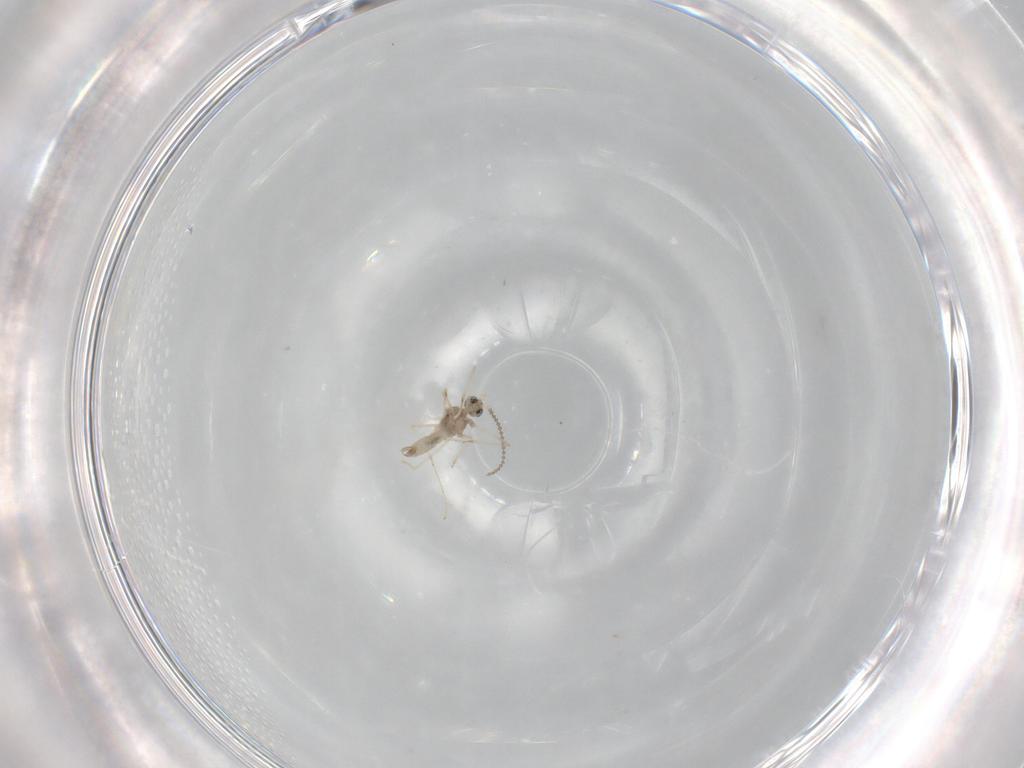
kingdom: Animalia
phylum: Arthropoda
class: Insecta
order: Diptera
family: Cecidomyiidae
